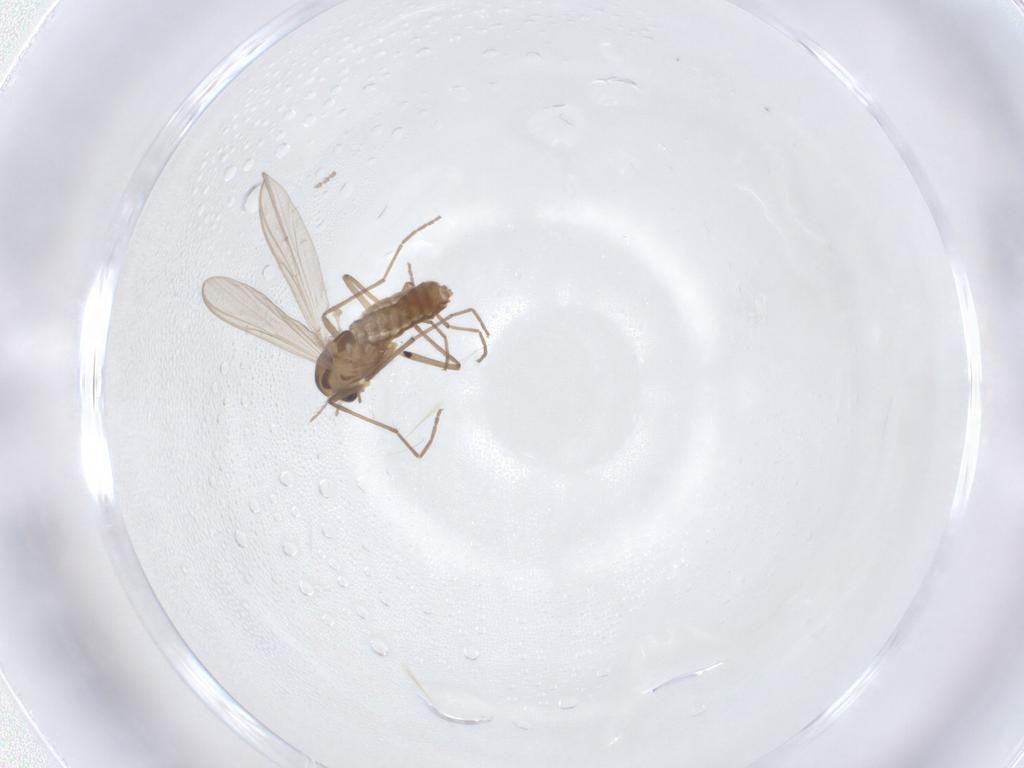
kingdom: Animalia
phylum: Arthropoda
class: Insecta
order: Diptera
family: Chironomidae
